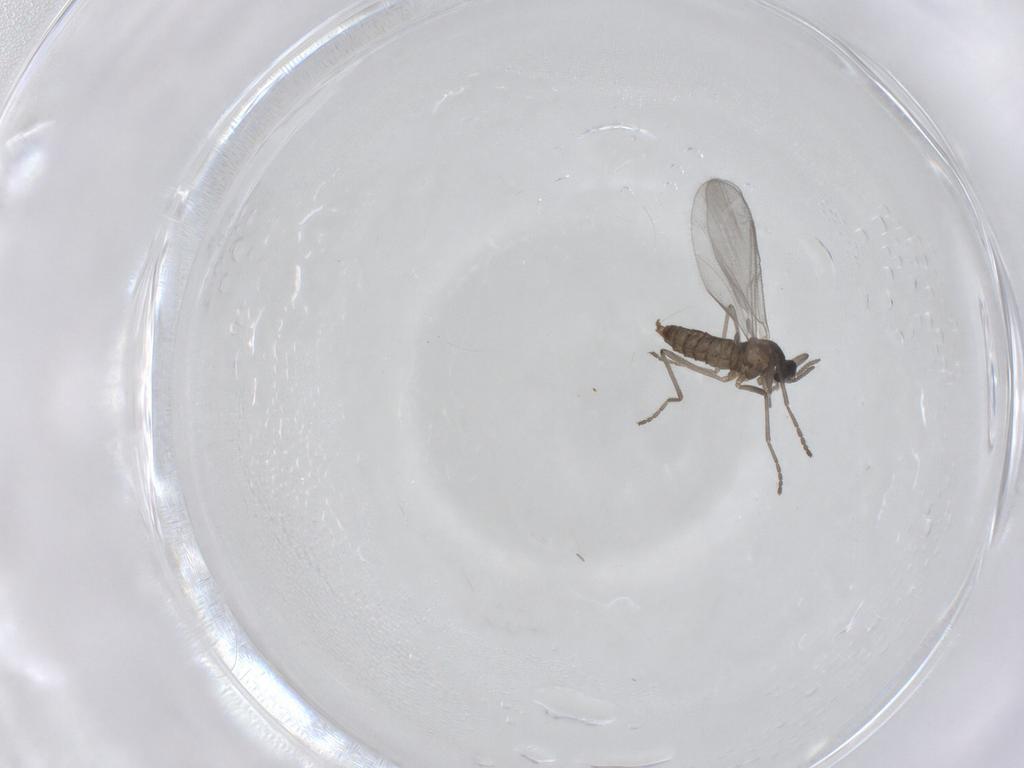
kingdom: Animalia
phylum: Arthropoda
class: Insecta
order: Diptera
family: Cecidomyiidae
